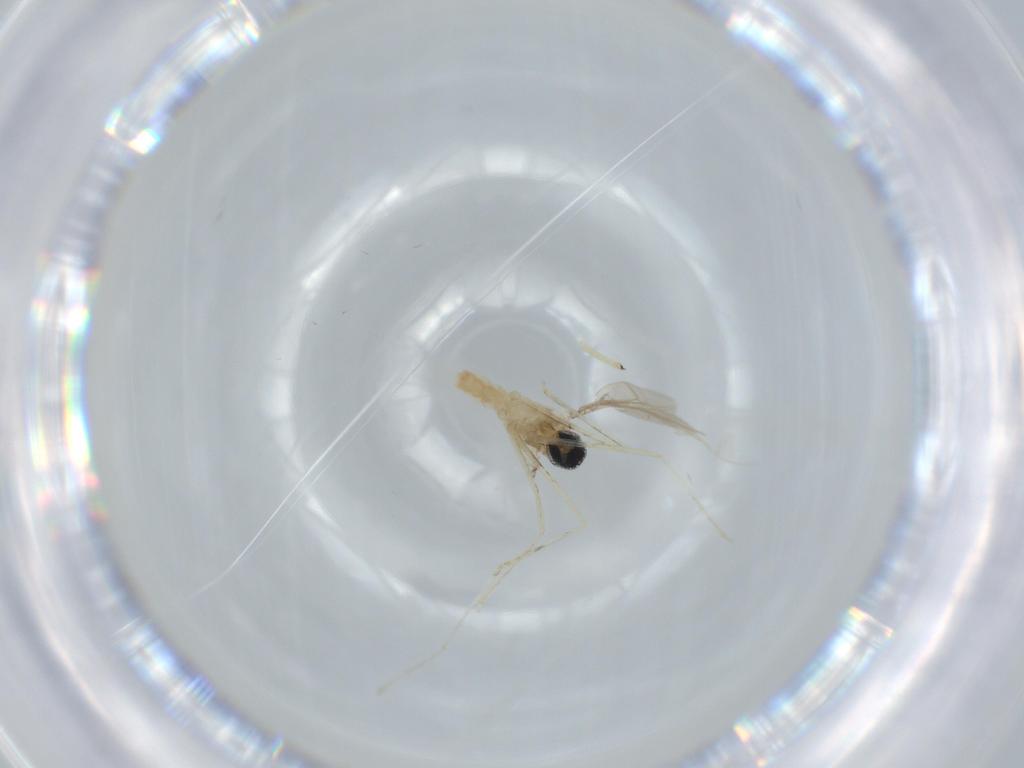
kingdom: Animalia
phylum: Arthropoda
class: Insecta
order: Diptera
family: Cecidomyiidae
